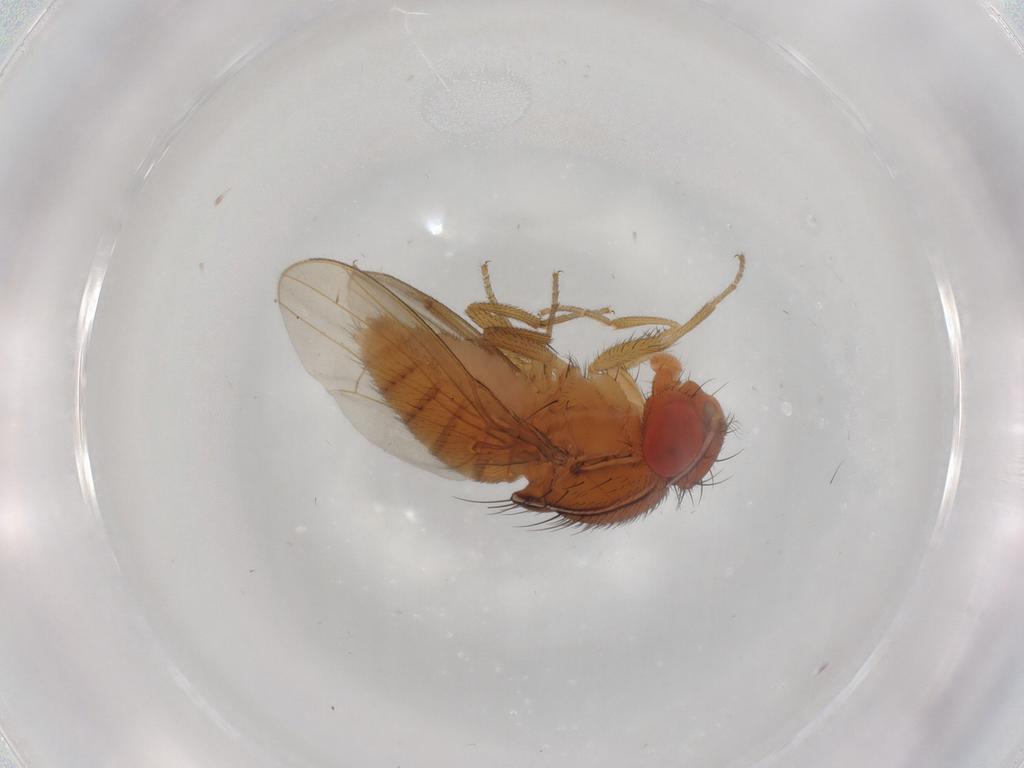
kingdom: Animalia
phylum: Arthropoda
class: Insecta
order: Diptera
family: Drosophilidae
